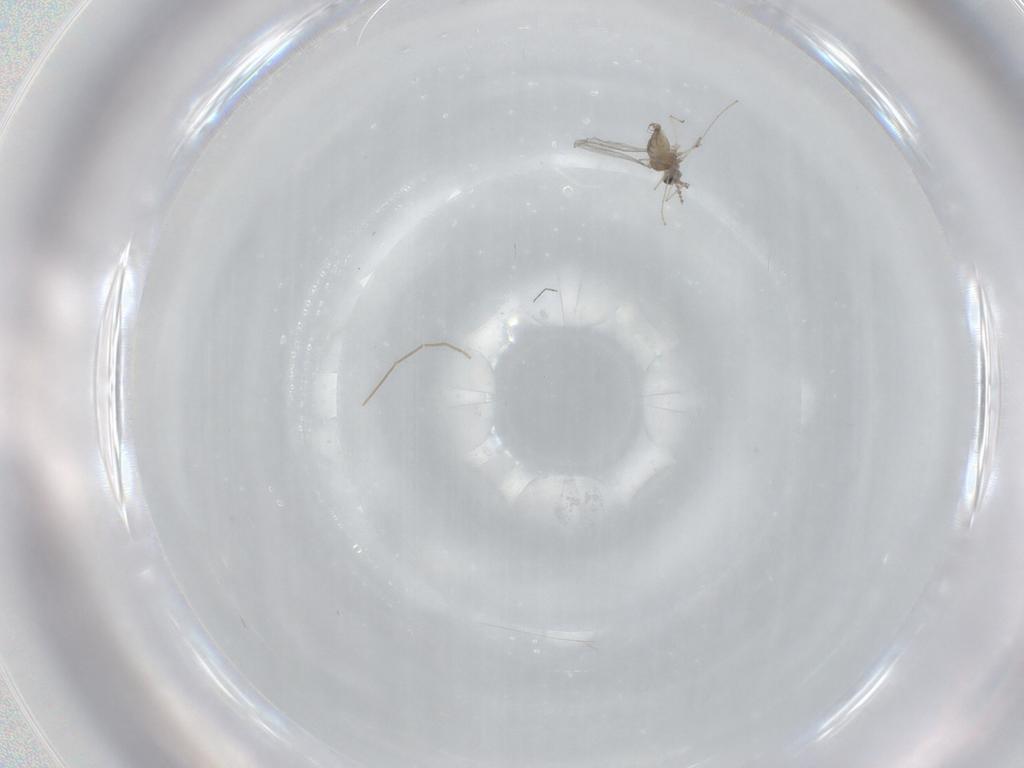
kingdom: Animalia
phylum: Arthropoda
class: Insecta
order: Diptera
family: Cecidomyiidae
